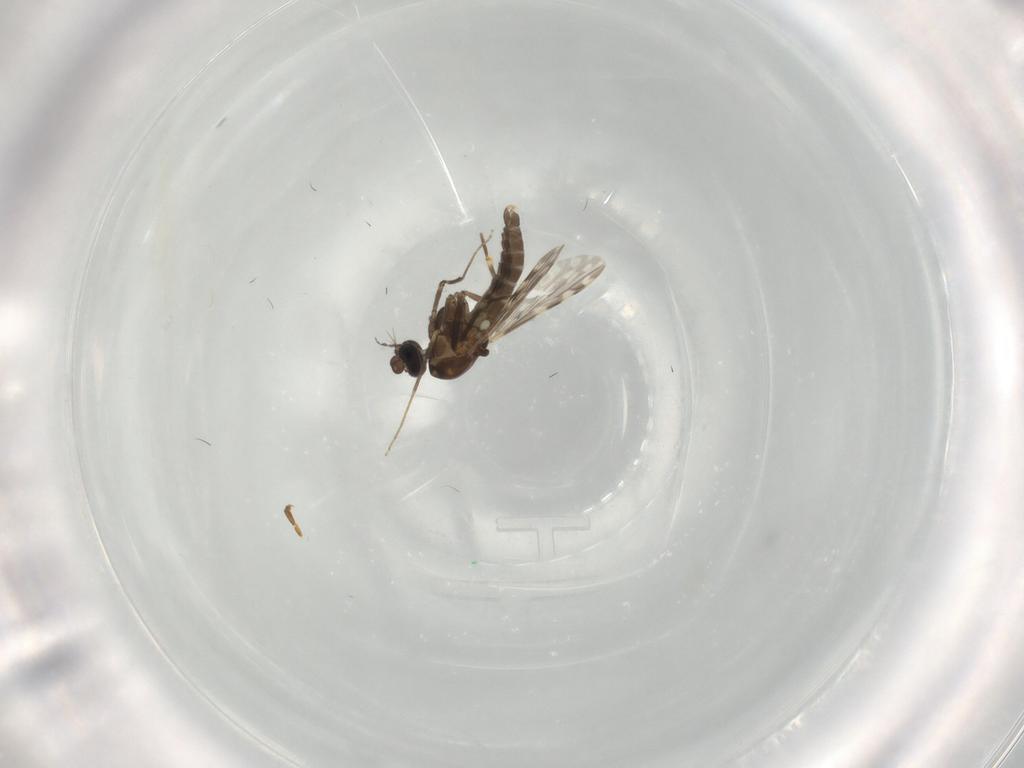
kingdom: Animalia
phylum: Arthropoda
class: Insecta
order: Diptera
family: Ceratopogonidae
